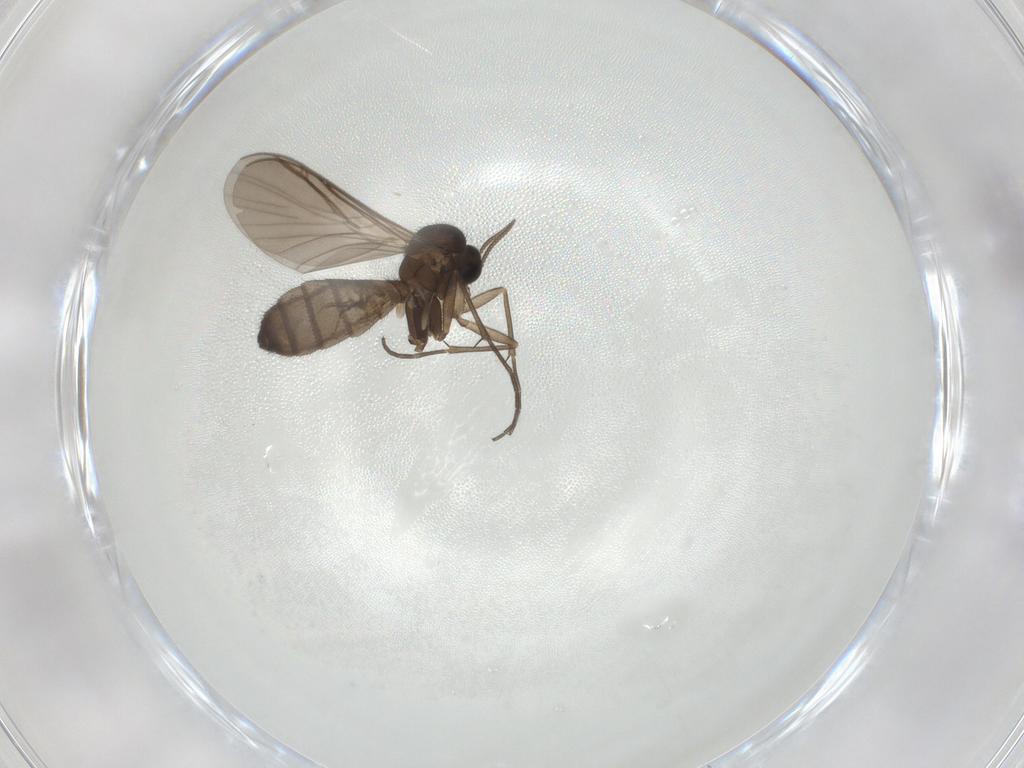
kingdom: Animalia
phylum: Arthropoda
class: Insecta
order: Diptera
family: Keroplatidae
